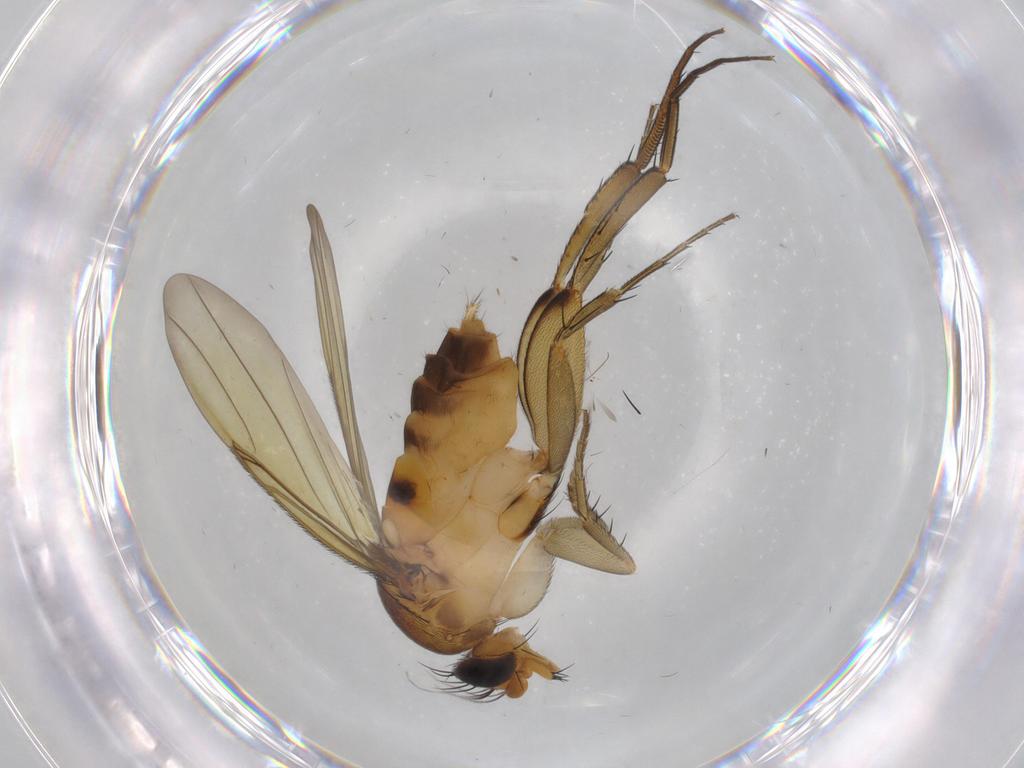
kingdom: Animalia
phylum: Arthropoda
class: Insecta
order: Diptera
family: Phoridae
